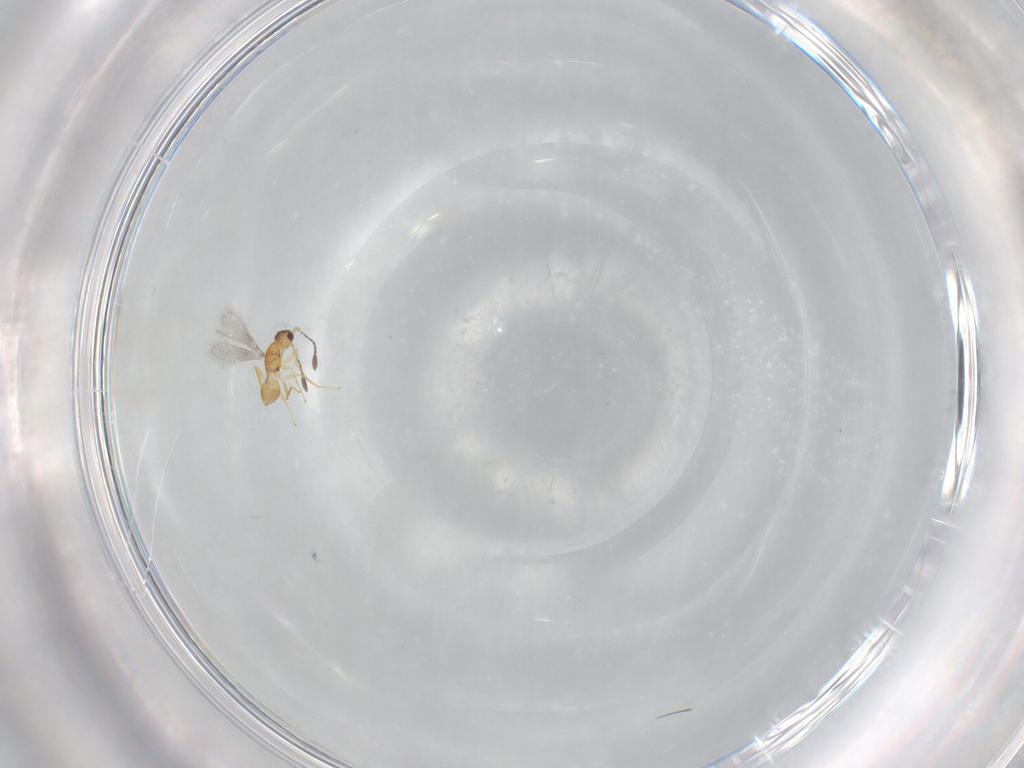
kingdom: Animalia
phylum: Arthropoda
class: Insecta
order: Hymenoptera
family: Mymaridae
